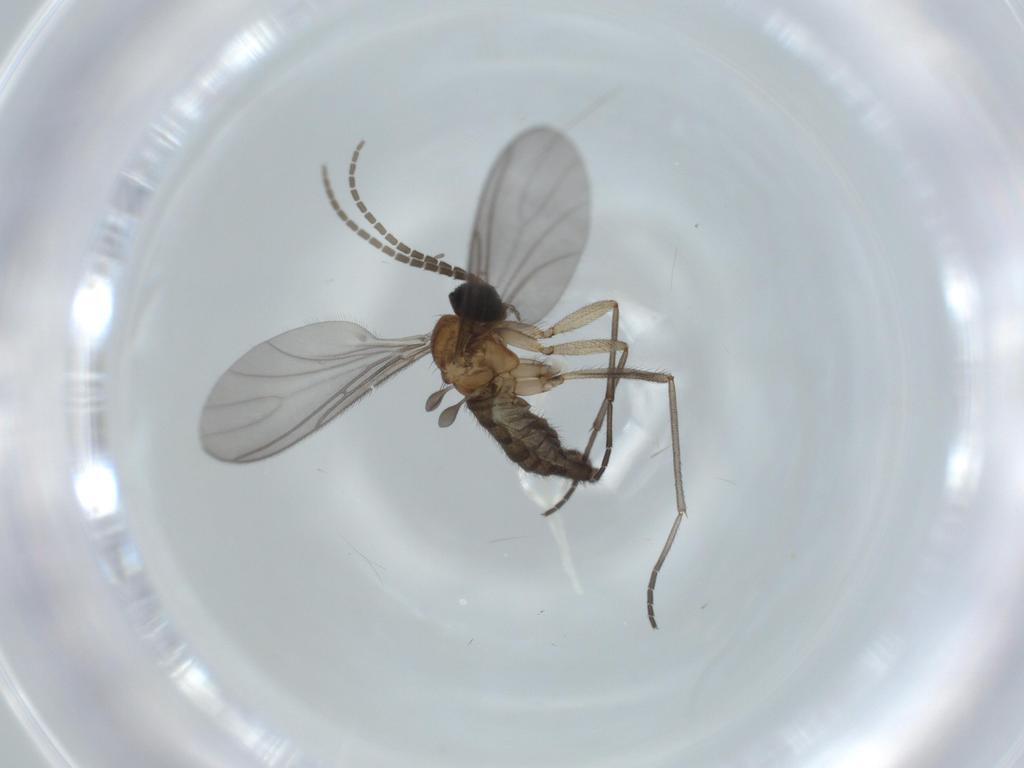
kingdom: Animalia
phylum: Arthropoda
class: Insecta
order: Diptera
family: Sciaridae
